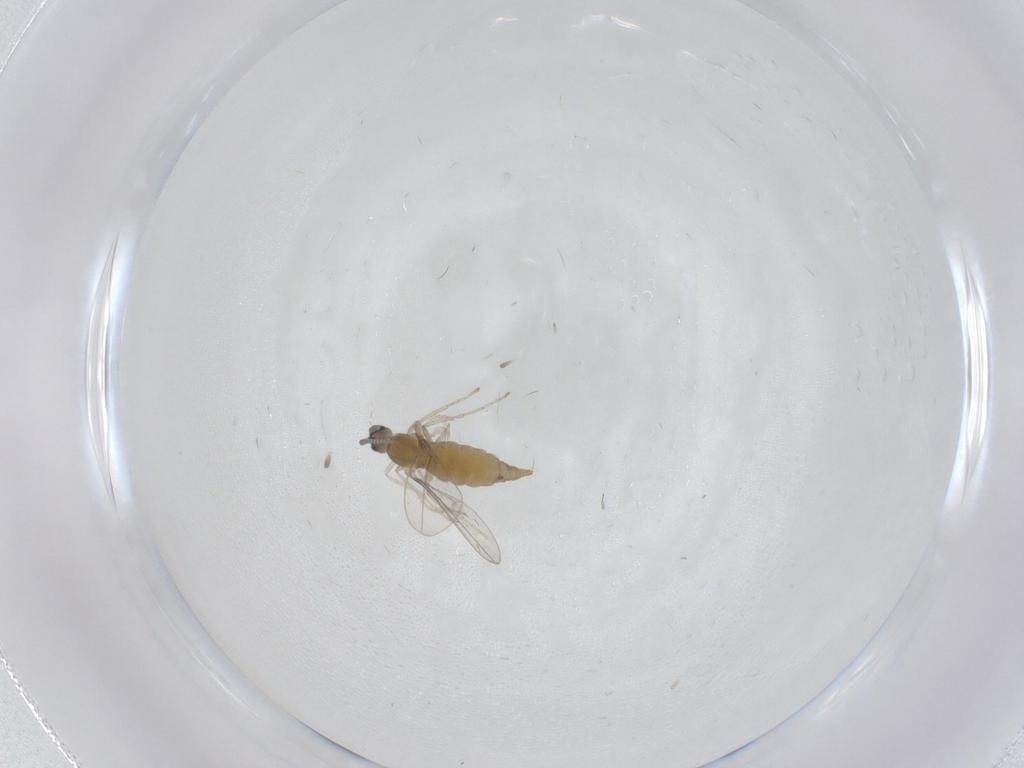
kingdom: Animalia
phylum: Arthropoda
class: Insecta
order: Diptera
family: Cecidomyiidae
